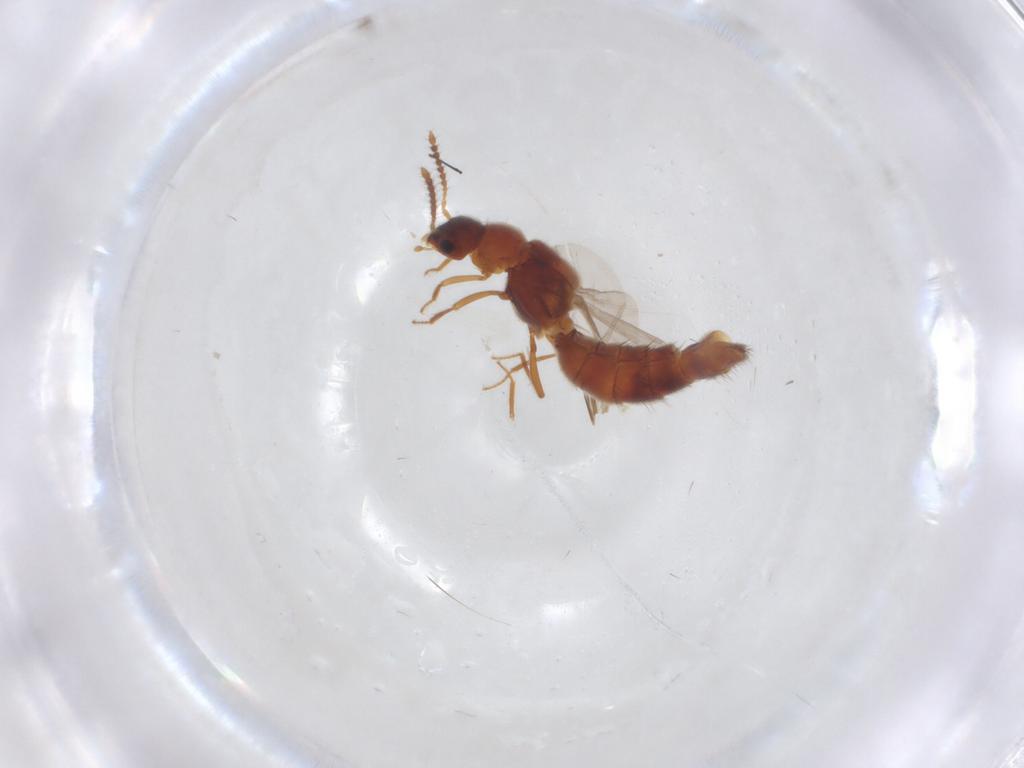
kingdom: Animalia
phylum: Arthropoda
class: Insecta
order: Coleoptera
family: Staphylinidae
